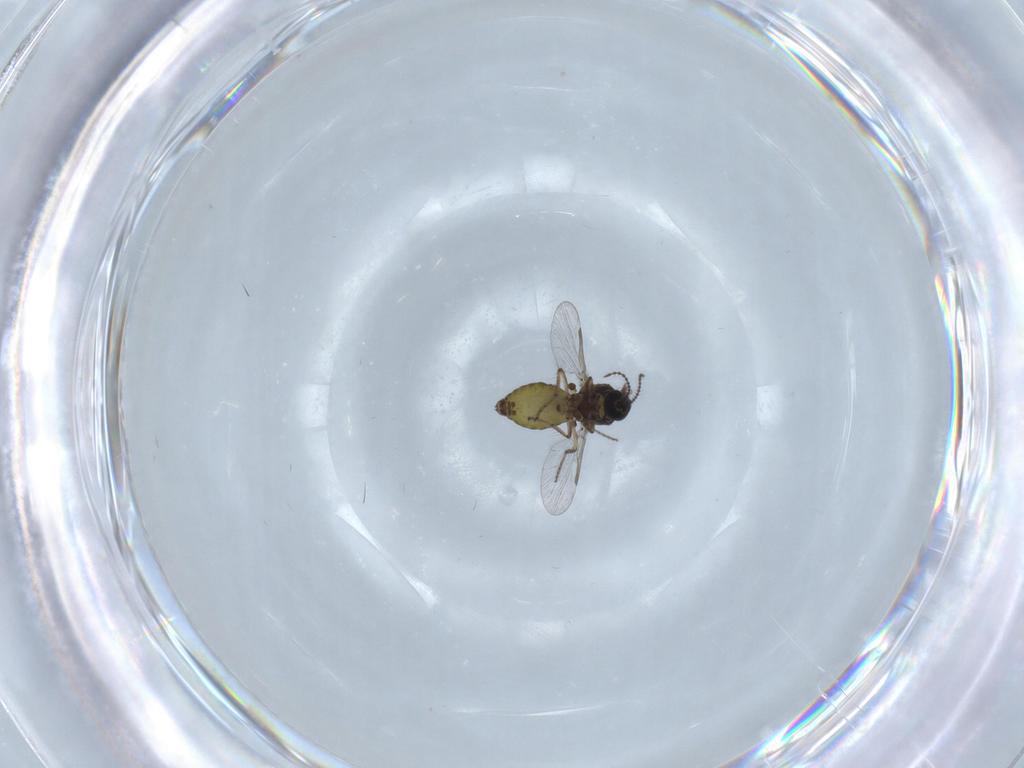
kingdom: Animalia
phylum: Arthropoda
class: Insecta
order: Diptera
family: Ceratopogonidae
